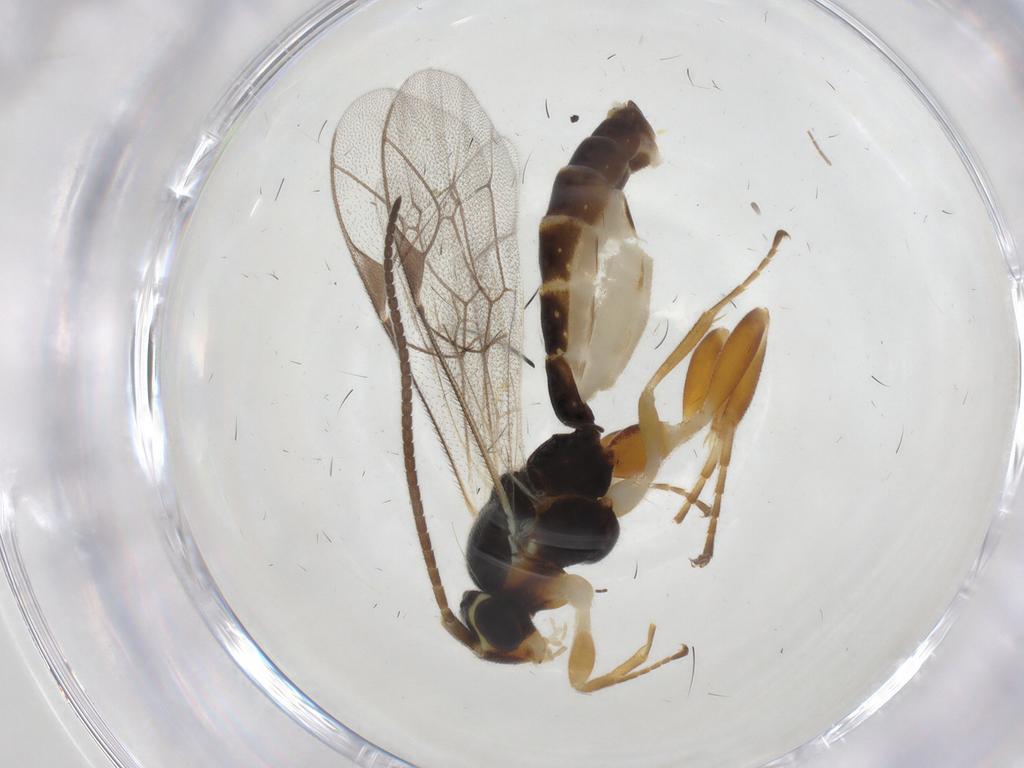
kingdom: Animalia
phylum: Arthropoda
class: Insecta
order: Hymenoptera
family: Ichneumonidae
